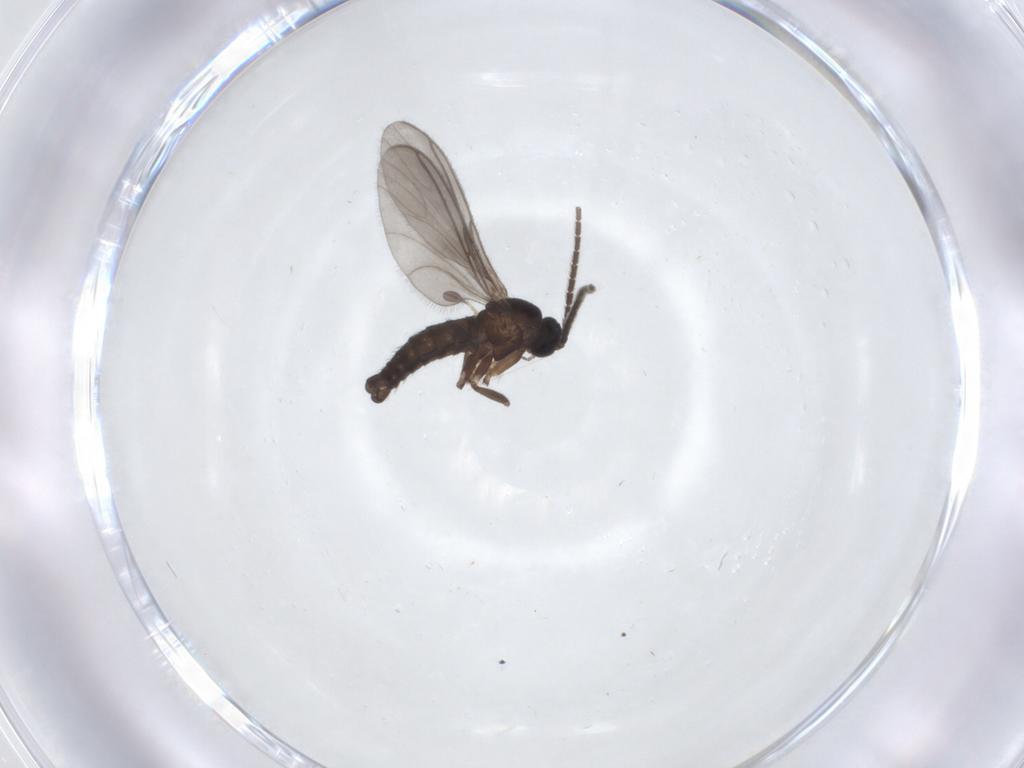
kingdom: Animalia
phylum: Arthropoda
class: Insecta
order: Diptera
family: Sciaridae
